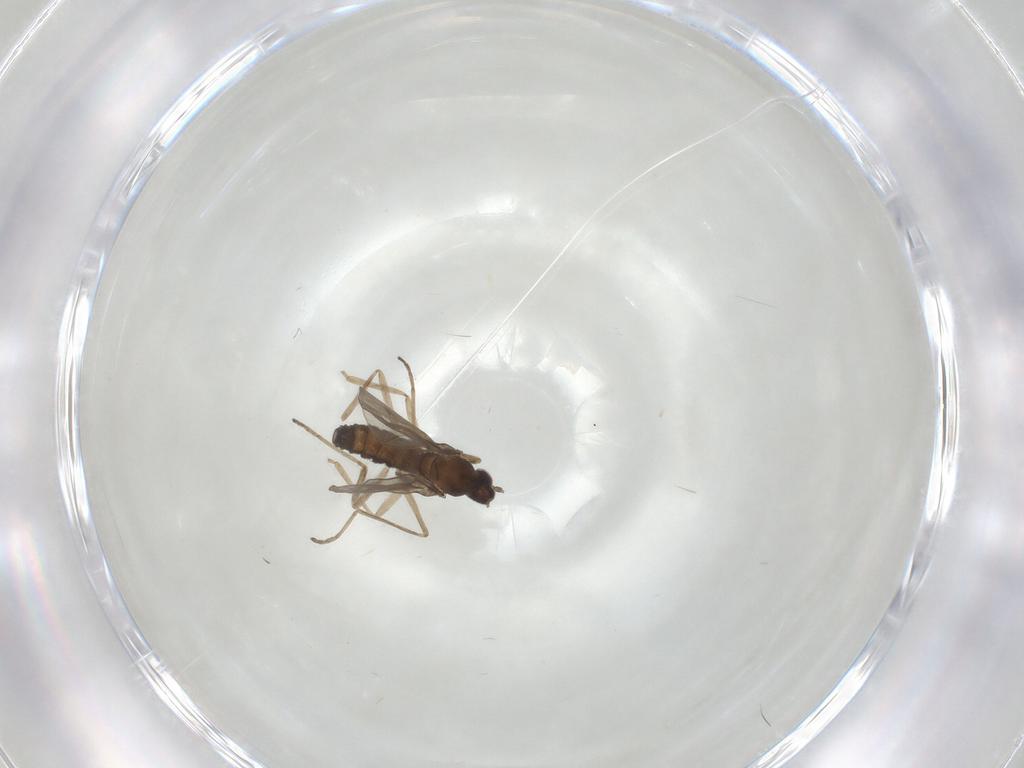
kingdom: Animalia
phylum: Arthropoda
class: Insecta
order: Diptera
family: Cecidomyiidae
